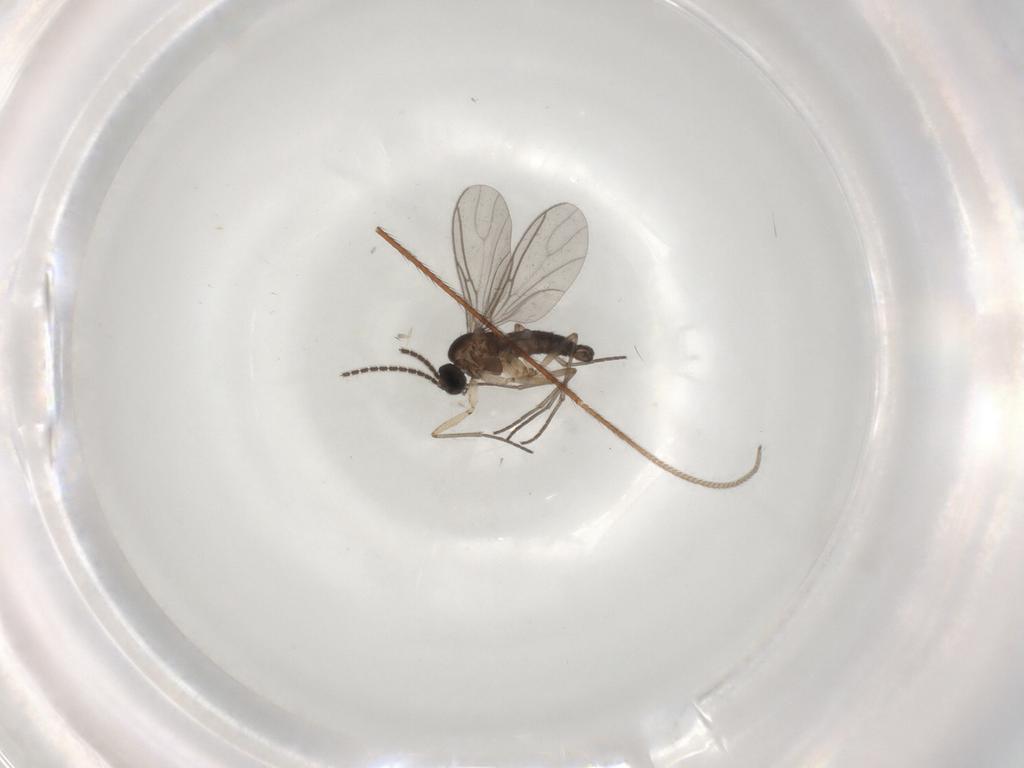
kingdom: Animalia
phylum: Arthropoda
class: Insecta
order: Diptera
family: Sciaridae
